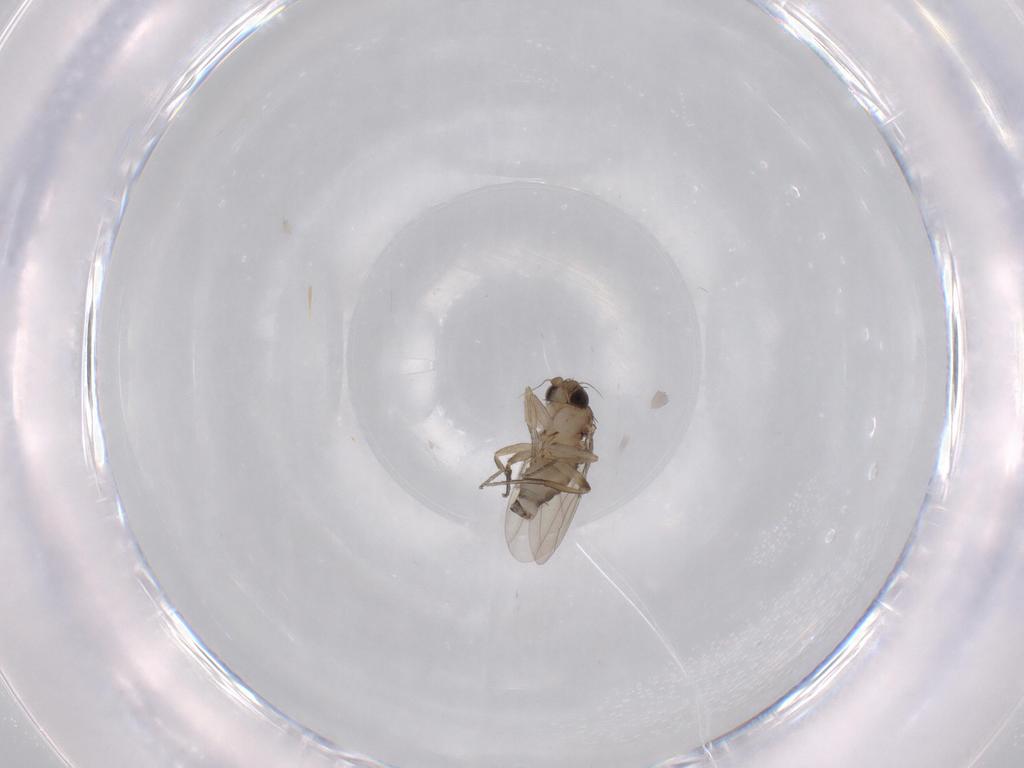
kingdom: Animalia
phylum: Arthropoda
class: Insecta
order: Diptera
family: Phoridae
